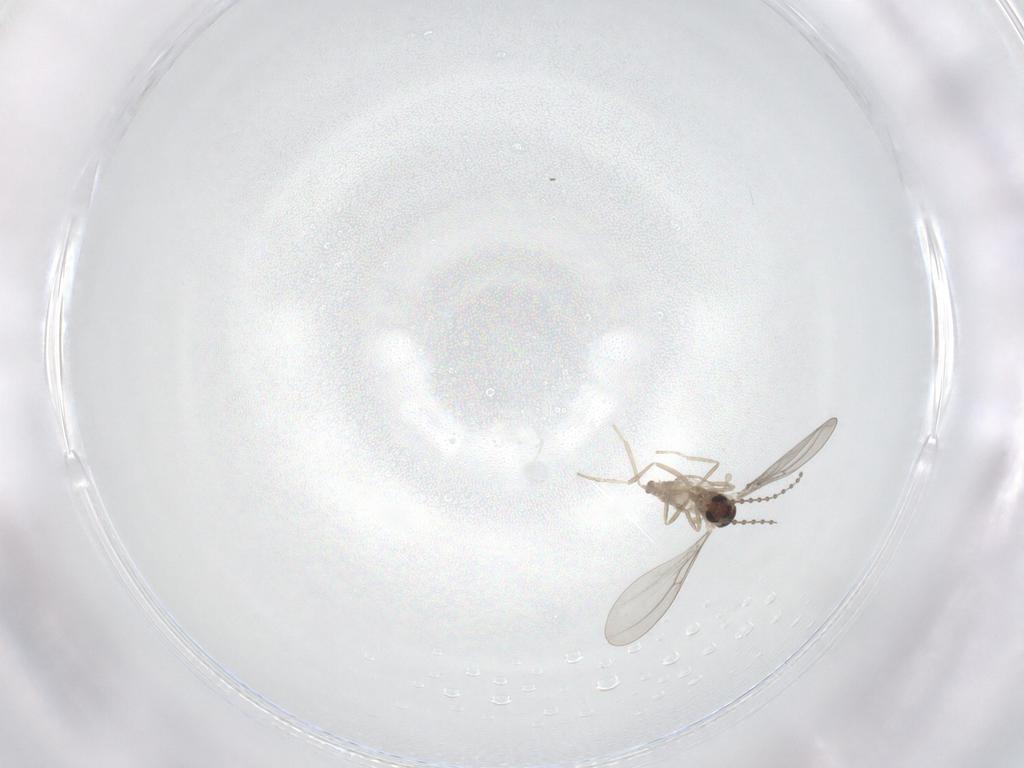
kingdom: Animalia
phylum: Arthropoda
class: Insecta
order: Diptera
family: Cecidomyiidae
